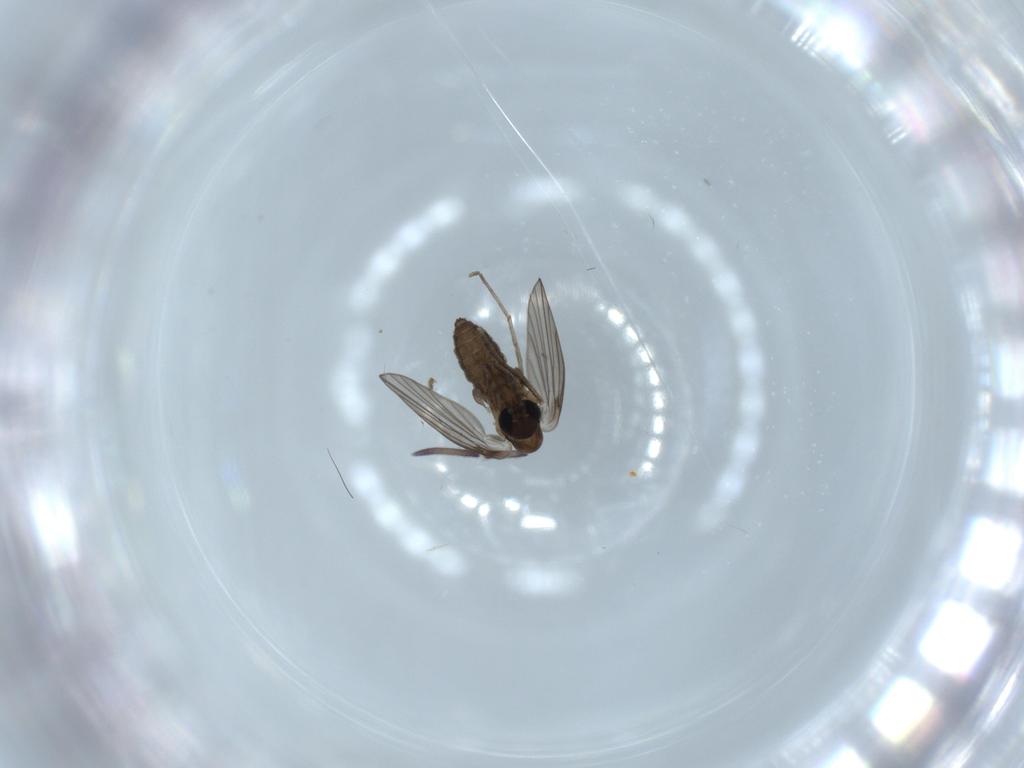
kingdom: Animalia
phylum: Arthropoda
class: Insecta
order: Diptera
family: Psychodidae
